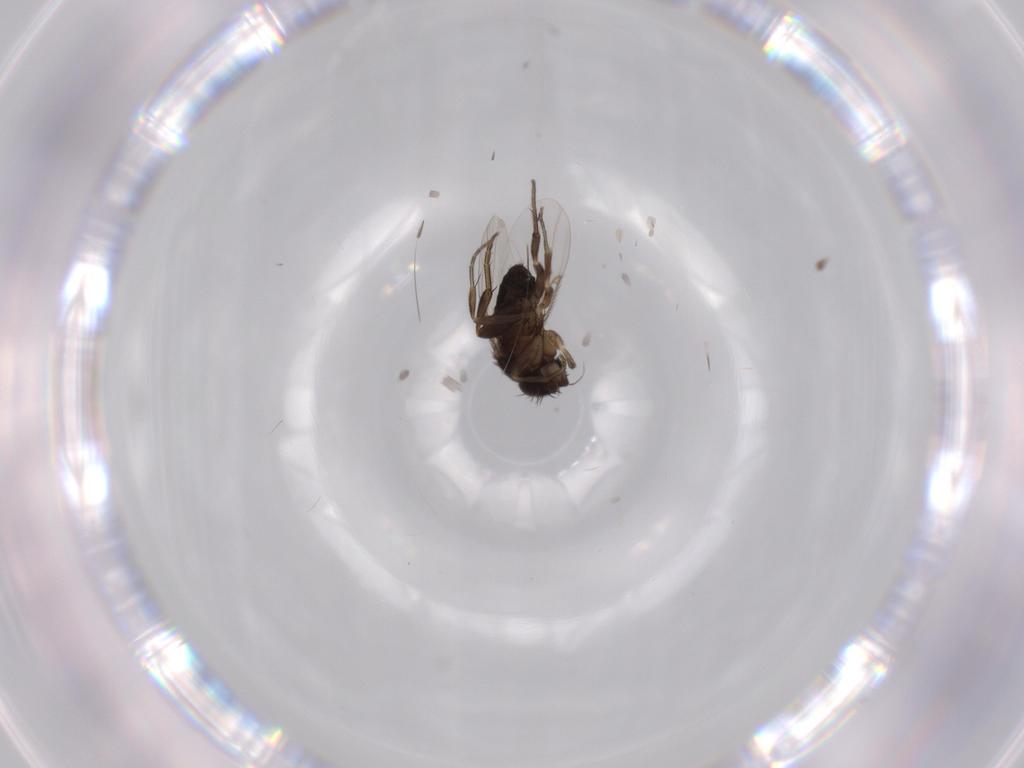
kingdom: Animalia
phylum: Arthropoda
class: Insecta
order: Diptera
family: Phoridae
